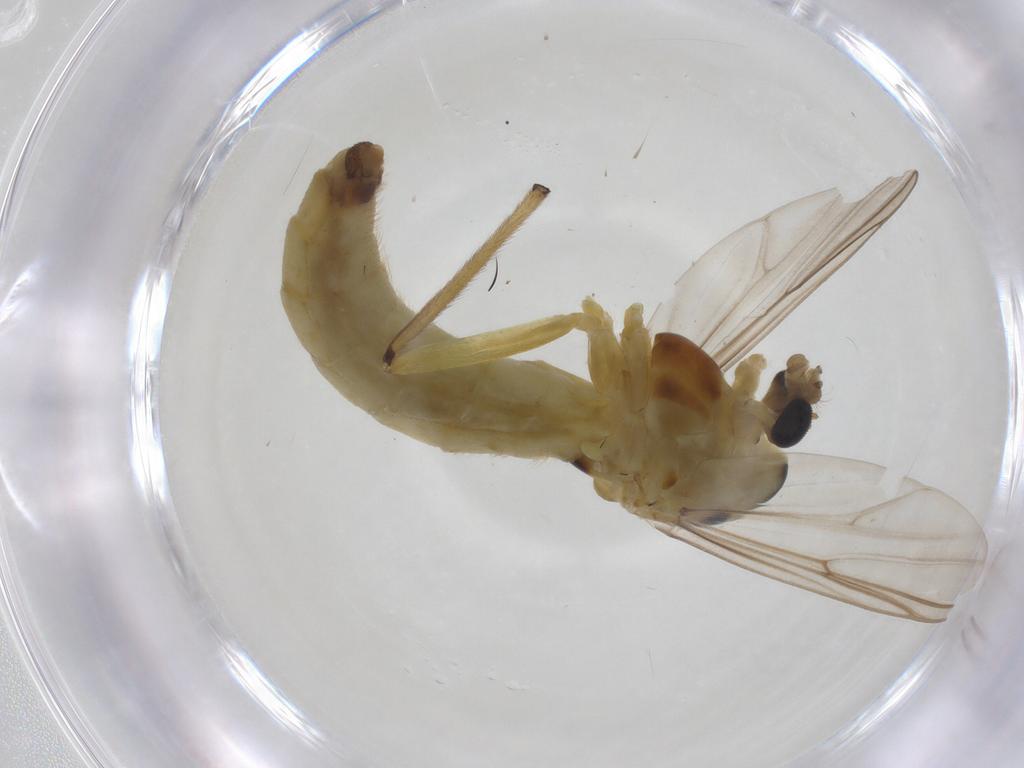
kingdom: Animalia
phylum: Arthropoda
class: Insecta
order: Diptera
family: Chironomidae
